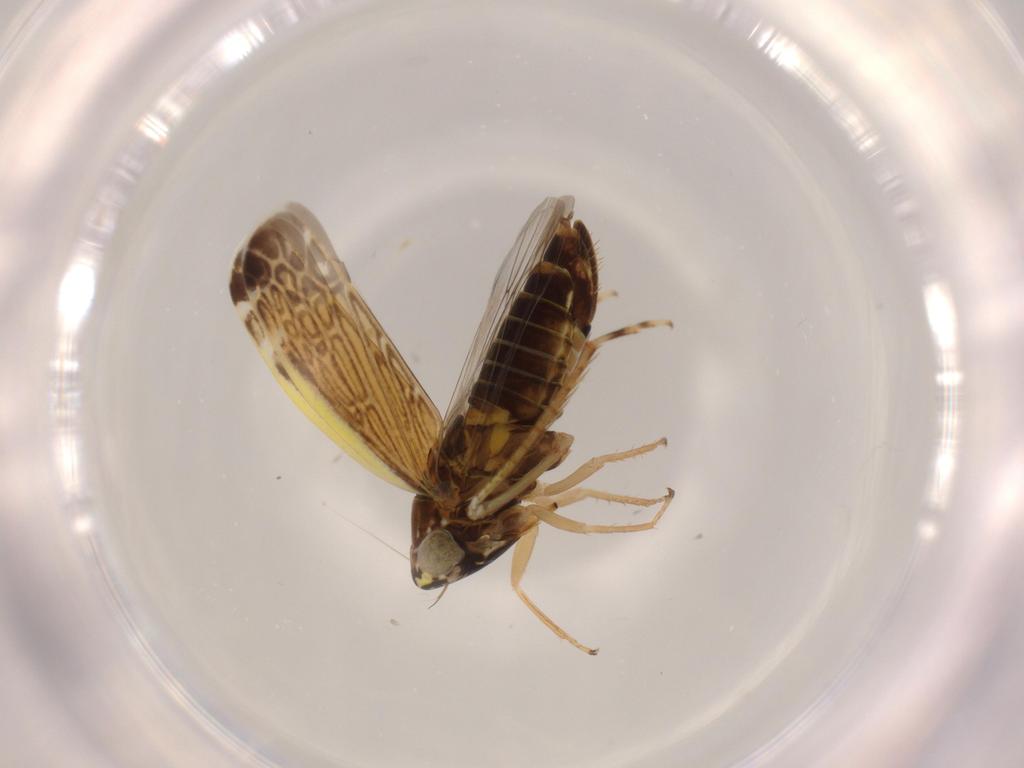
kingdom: Animalia
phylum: Arthropoda
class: Insecta
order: Hemiptera
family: Cicadellidae
